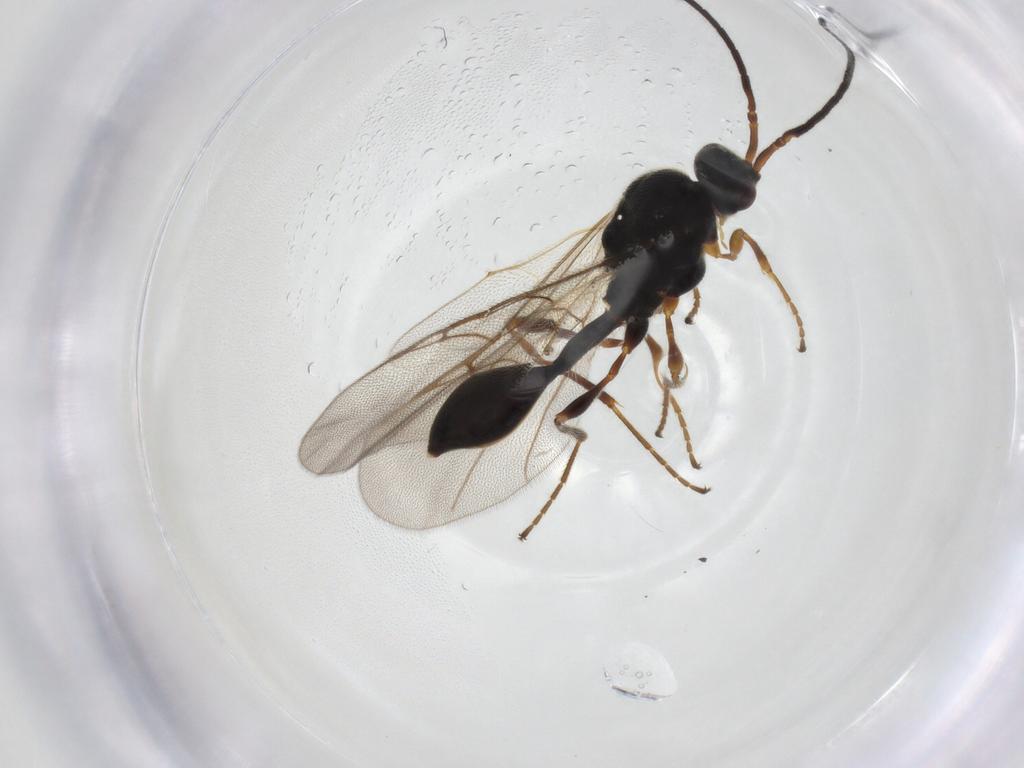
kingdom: Animalia
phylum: Arthropoda
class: Insecta
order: Hymenoptera
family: Diapriidae
